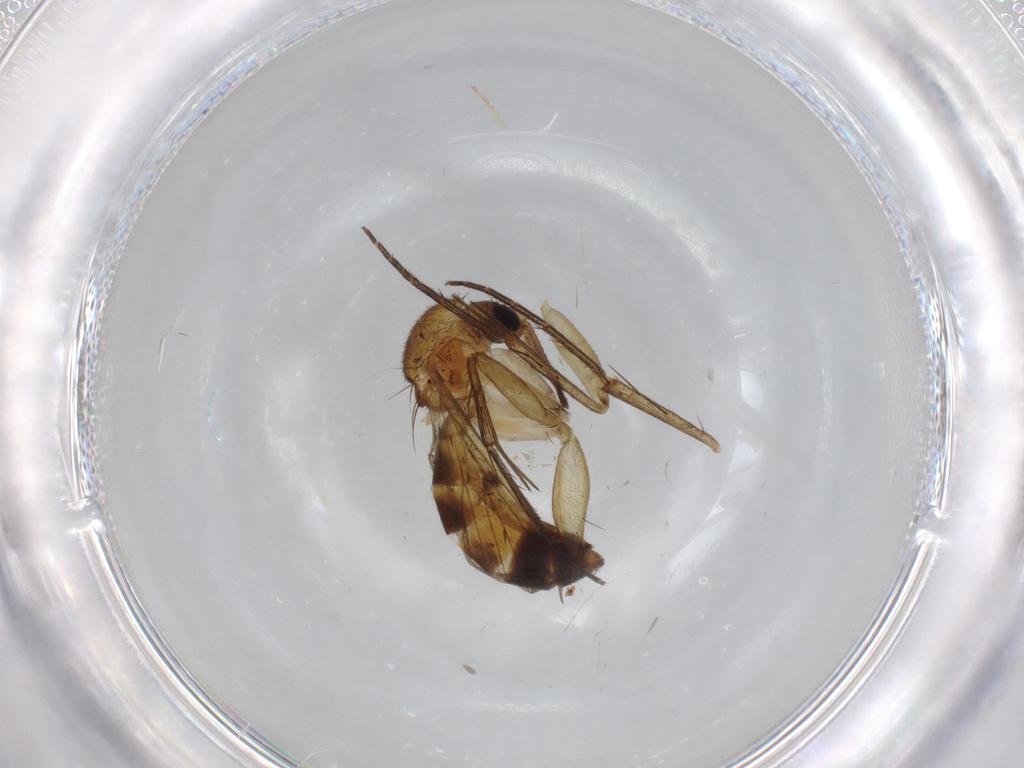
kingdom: Animalia
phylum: Arthropoda
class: Insecta
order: Diptera
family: Mycetophilidae
